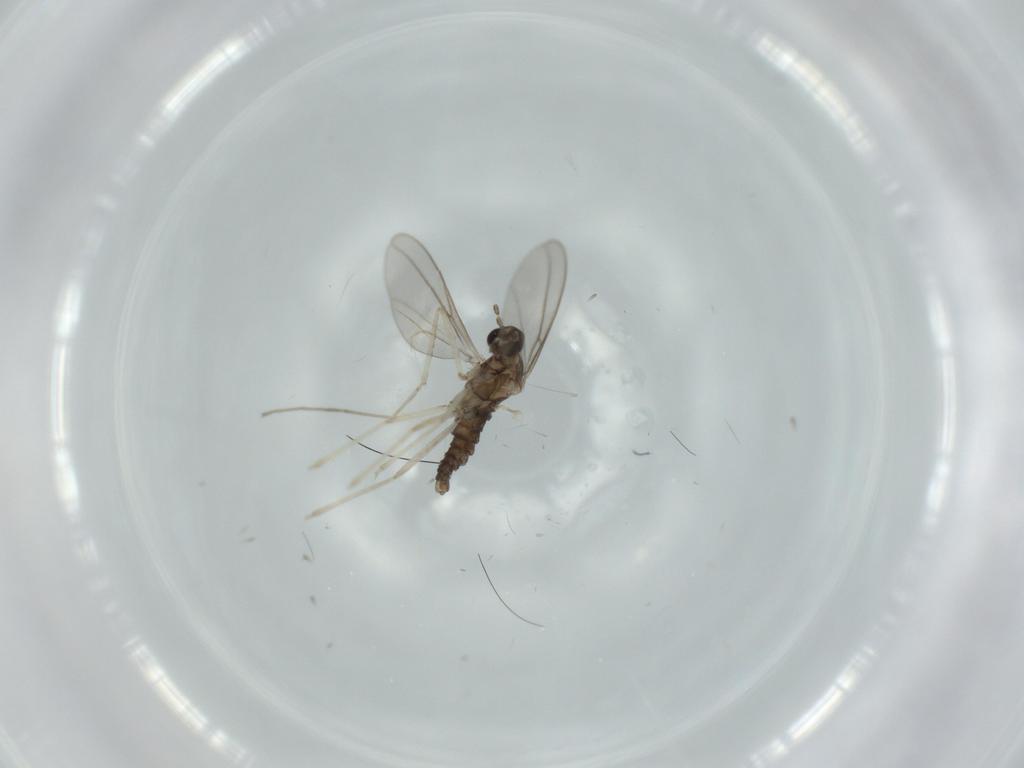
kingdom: Animalia
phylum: Arthropoda
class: Insecta
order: Diptera
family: Cecidomyiidae
